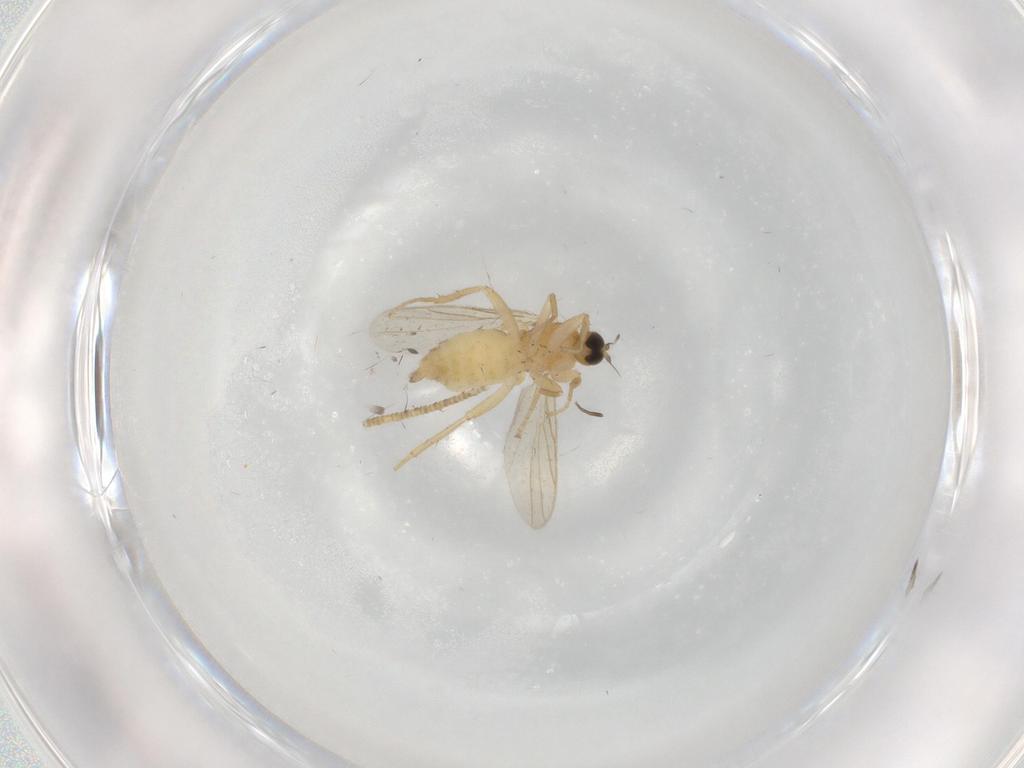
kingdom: Animalia
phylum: Arthropoda
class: Insecta
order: Diptera
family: Hybotidae
